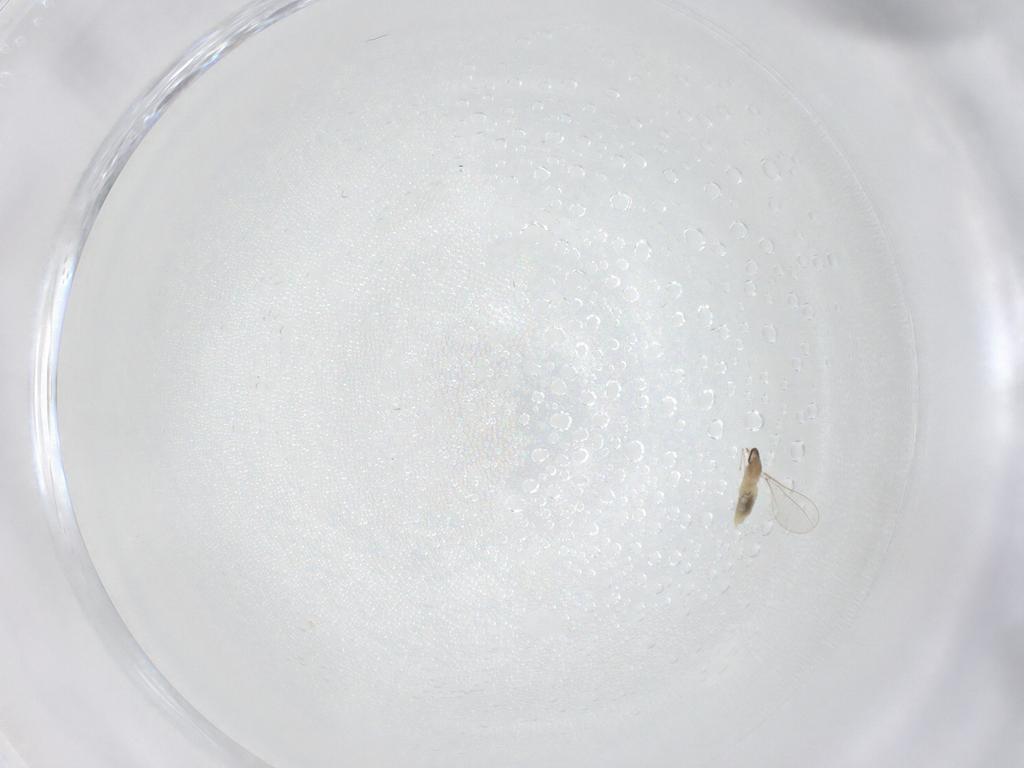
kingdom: Animalia
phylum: Arthropoda
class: Insecta
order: Diptera
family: Cecidomyiidae
